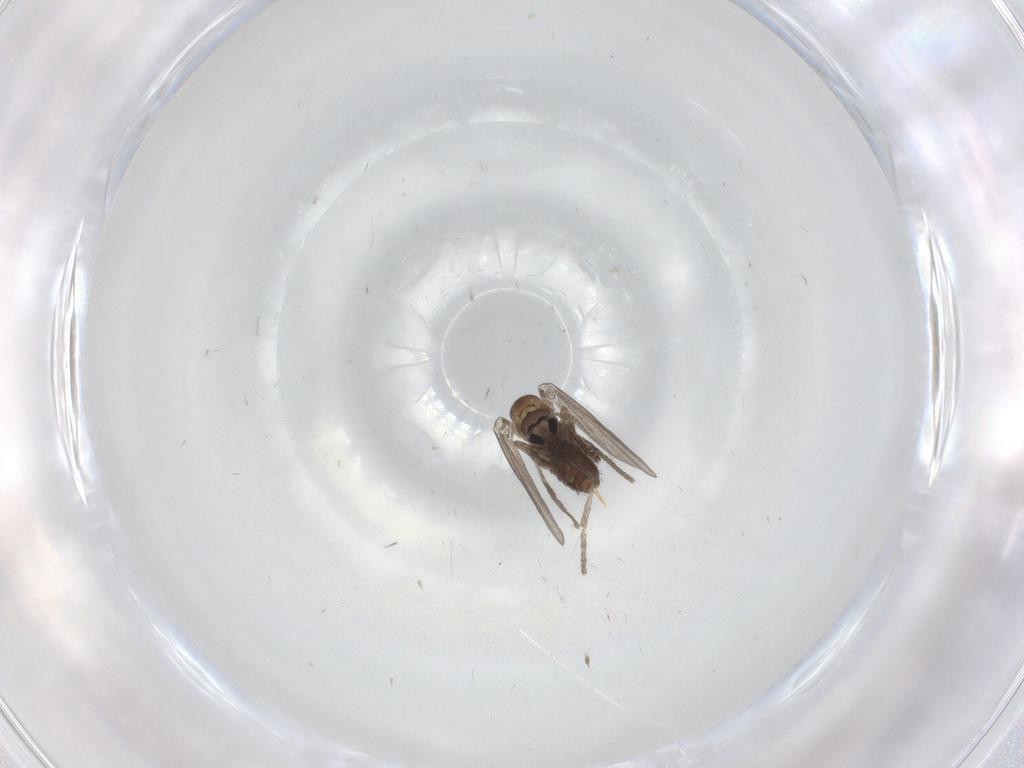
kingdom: Animalia
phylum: Arthropoda
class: Insecta
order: Diptera
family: Psychodidae
